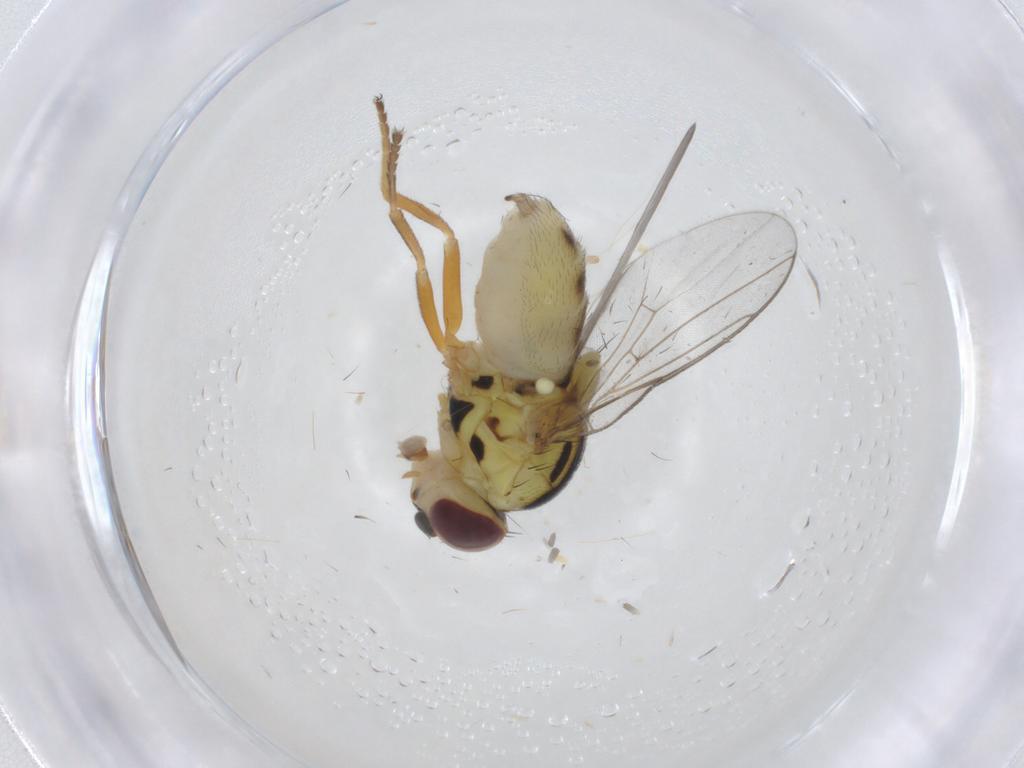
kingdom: Animalia
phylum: Arthropoda
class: Insecta
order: Diptera
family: Chloropidae
